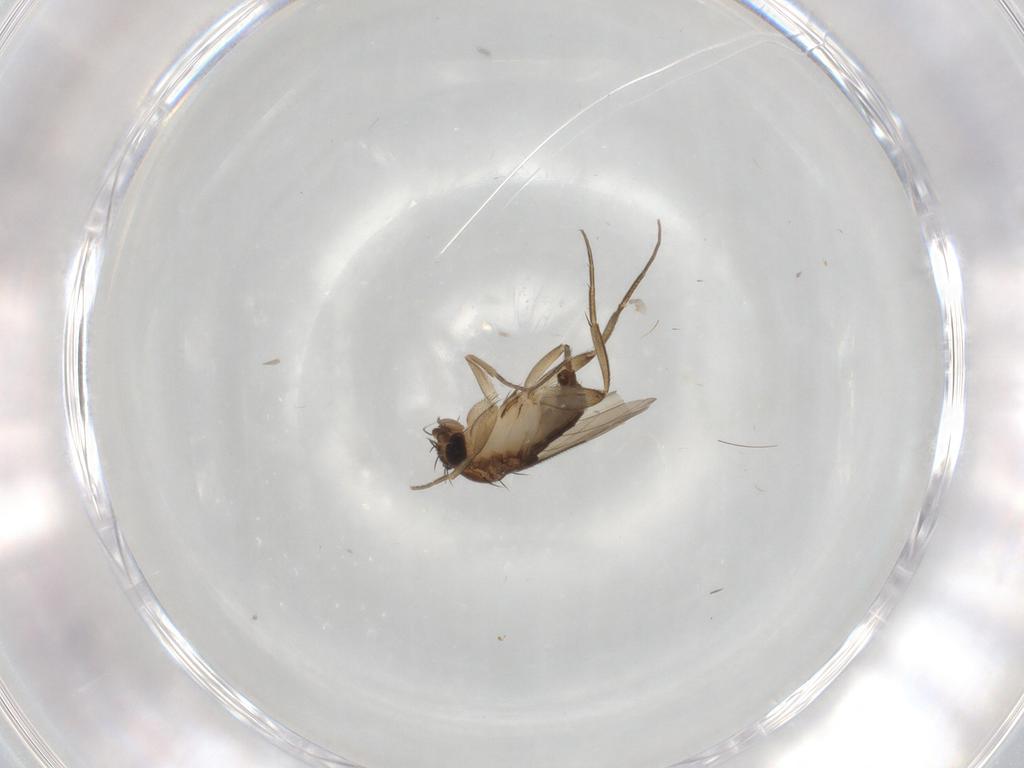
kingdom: Animalia
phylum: Arthropoda
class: Insecta
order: Diptera
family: Phoridae
